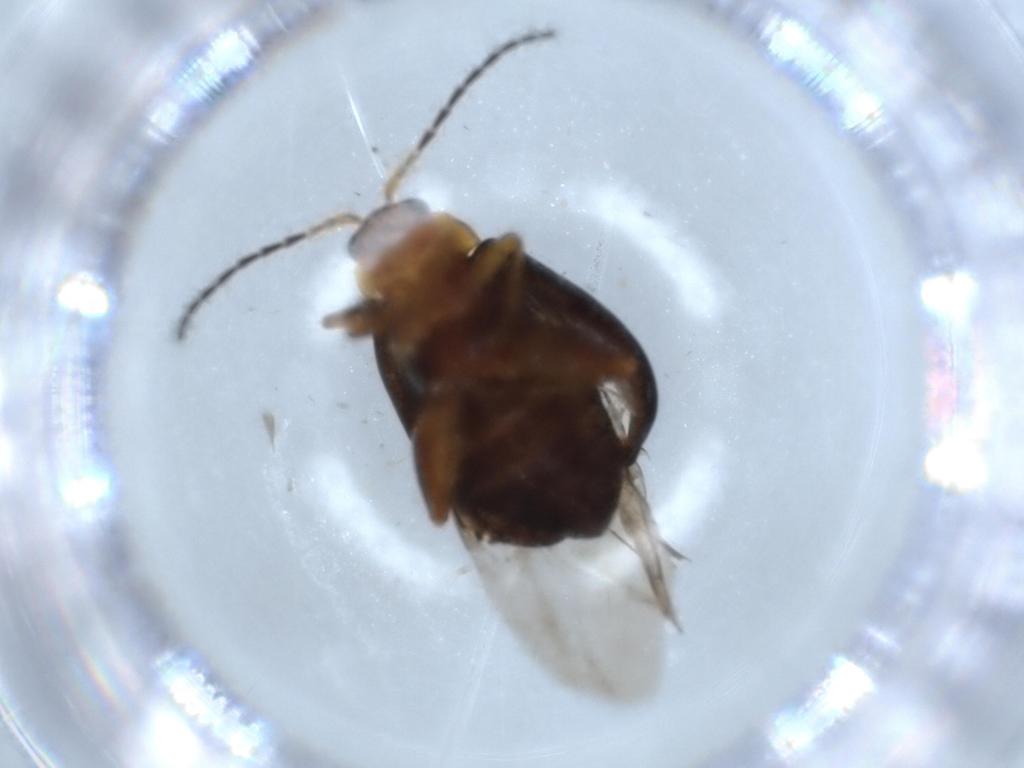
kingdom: Animalia
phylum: Arthropoda
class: Insecta
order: Coleoptera
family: Chrysomelidae
